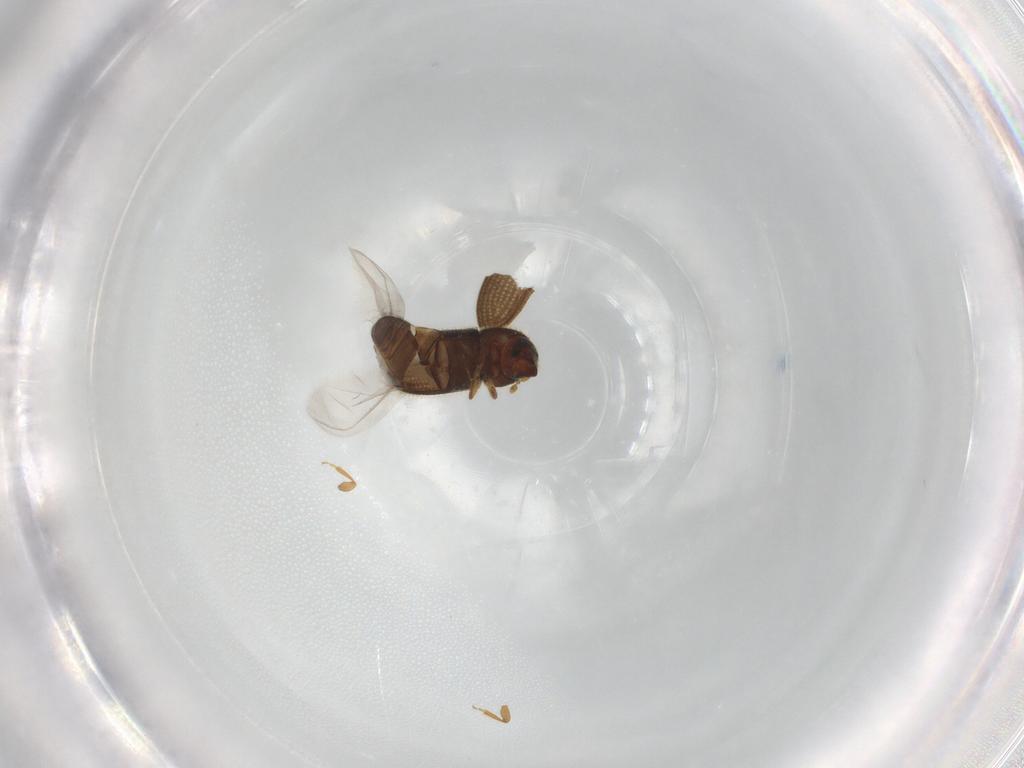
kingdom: Animalia
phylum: Arthropoda
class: Insecta
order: Coleoptera
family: Curculionidae
